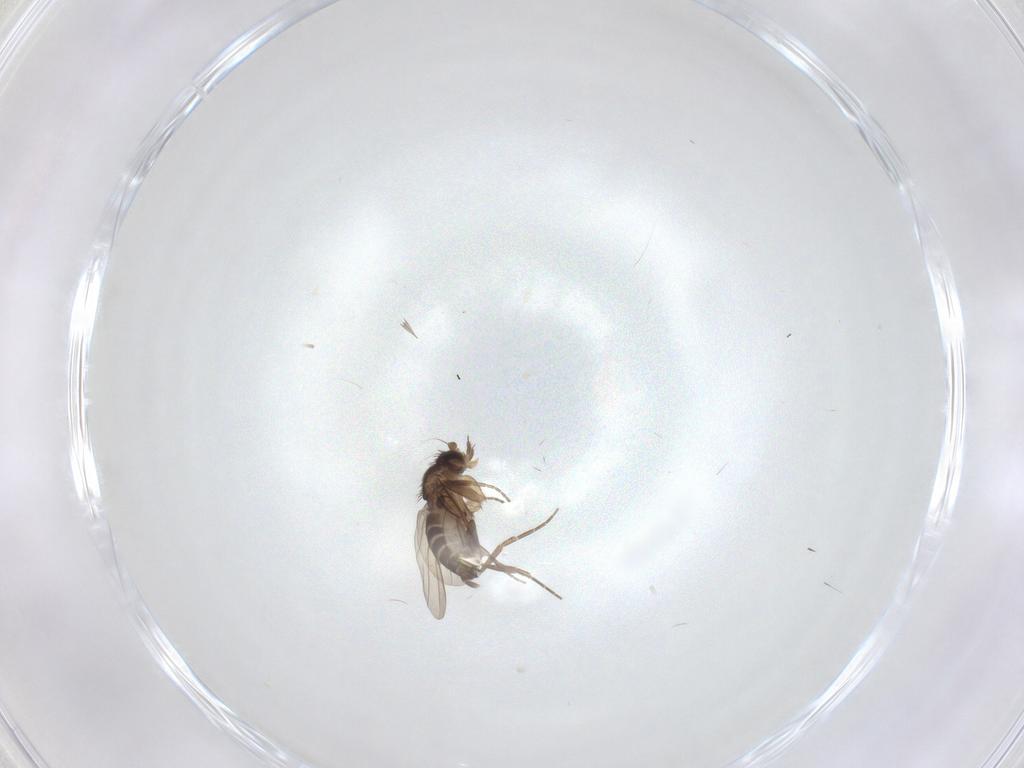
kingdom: Animalia
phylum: Arthropoda
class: Insecta
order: Diptera
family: Phoridae
